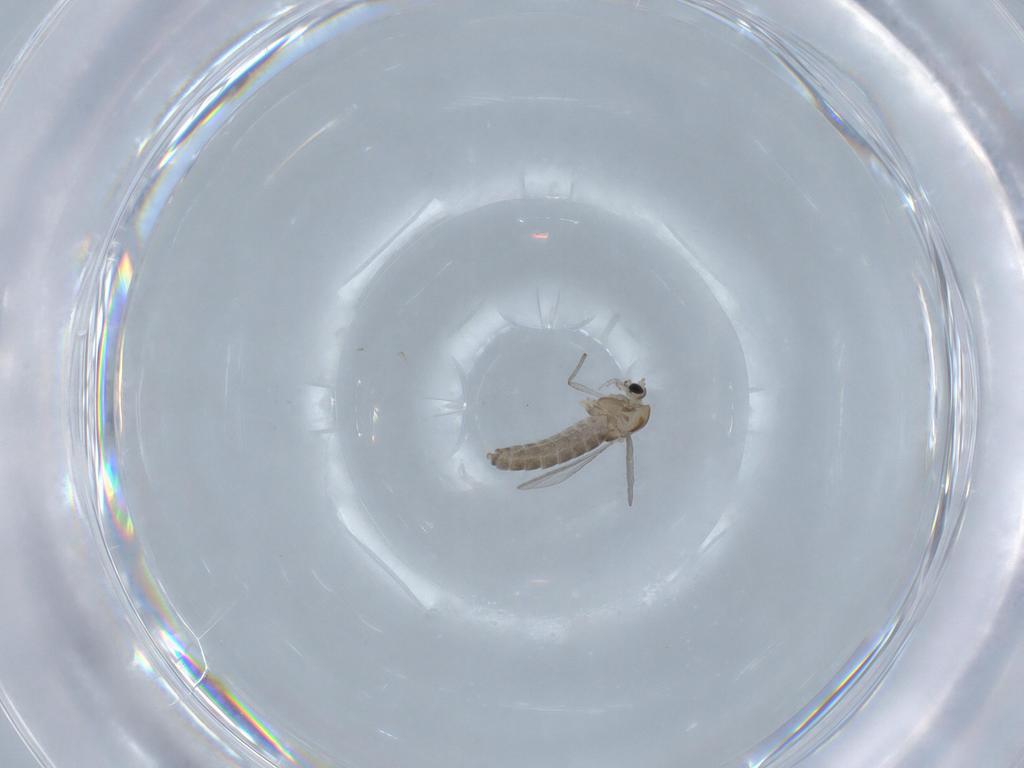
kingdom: Animalia
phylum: Arthropoda
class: Insecta
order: Diptera
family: Chironomidae
